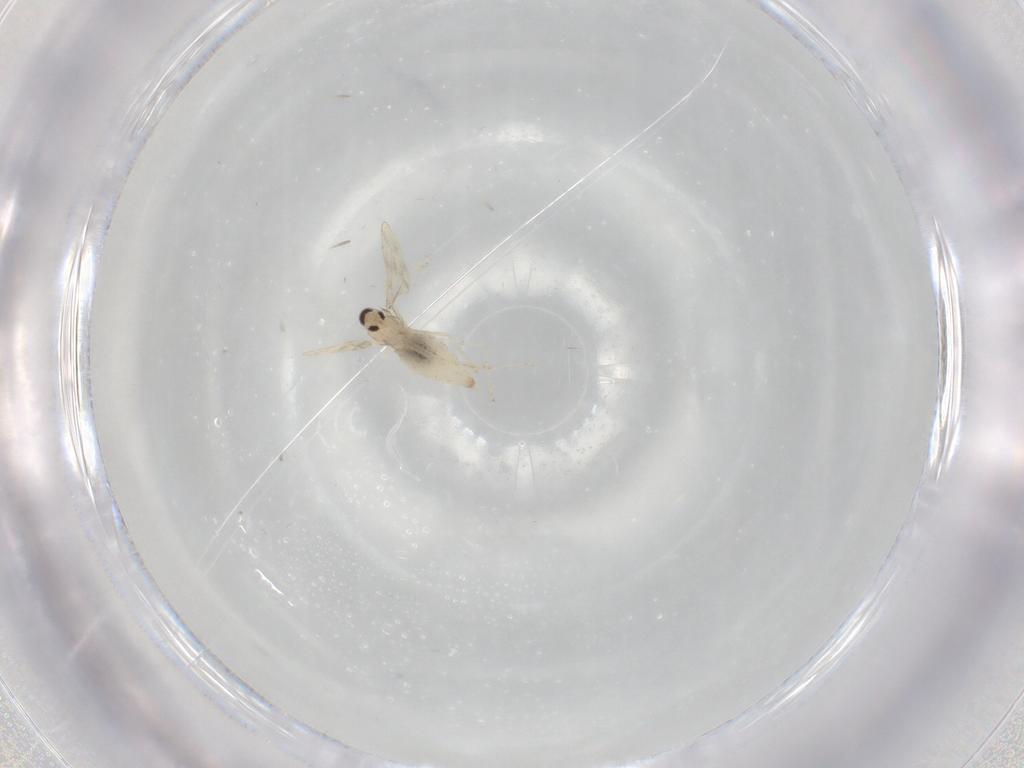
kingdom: Animalia
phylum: Arthropoda
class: Insecta
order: Diptera
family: Cecidomyiidae
